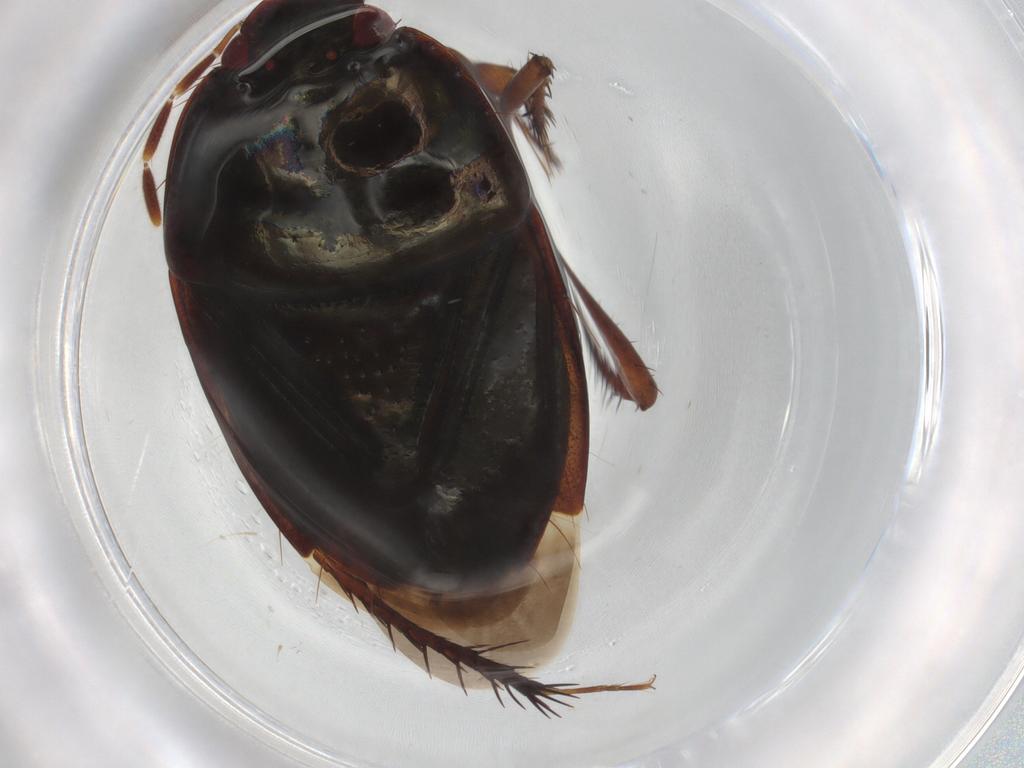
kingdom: Animalia
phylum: Arthropoda
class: Insecta
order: Hemiptera
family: Cydnidae
